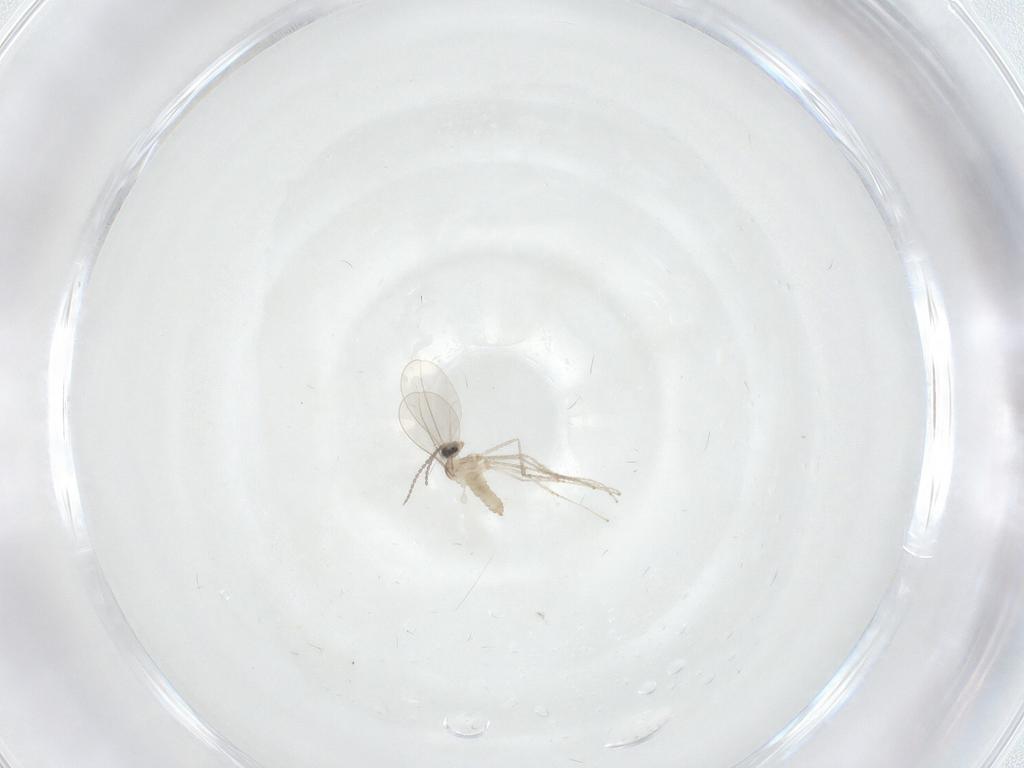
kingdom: Animalia
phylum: Arthropoda
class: Insecta
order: Diptera
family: Cecidomyiidae
